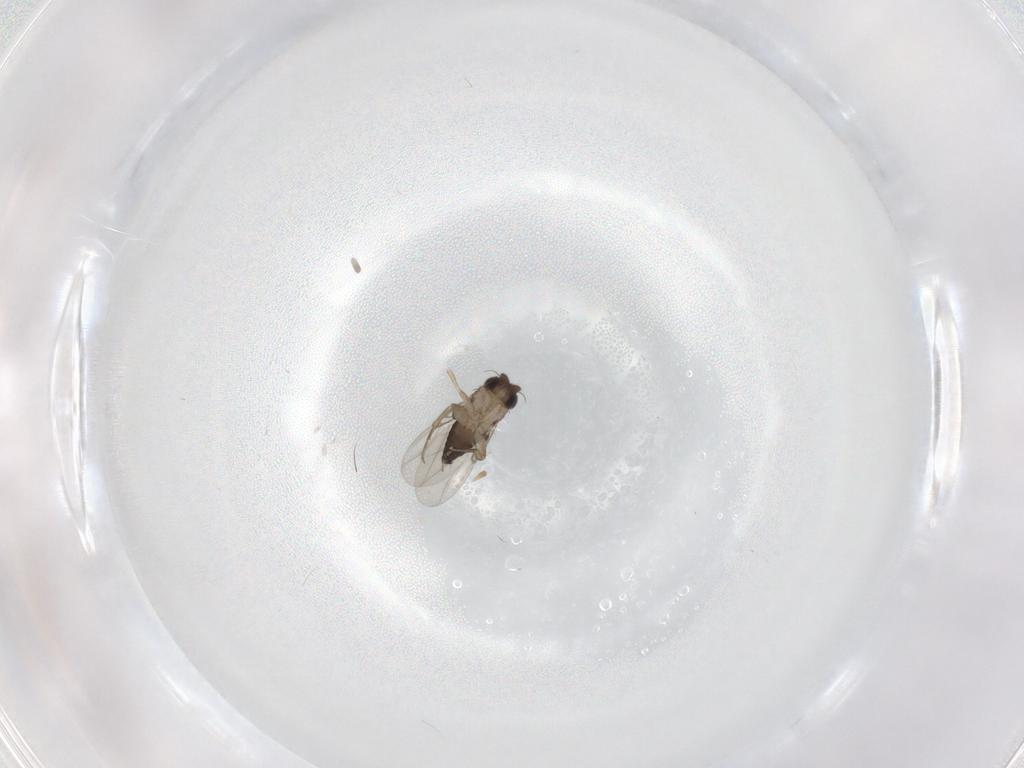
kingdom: Animalia
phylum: Arthropoda
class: Insecta
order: Diptera
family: Phoridae
